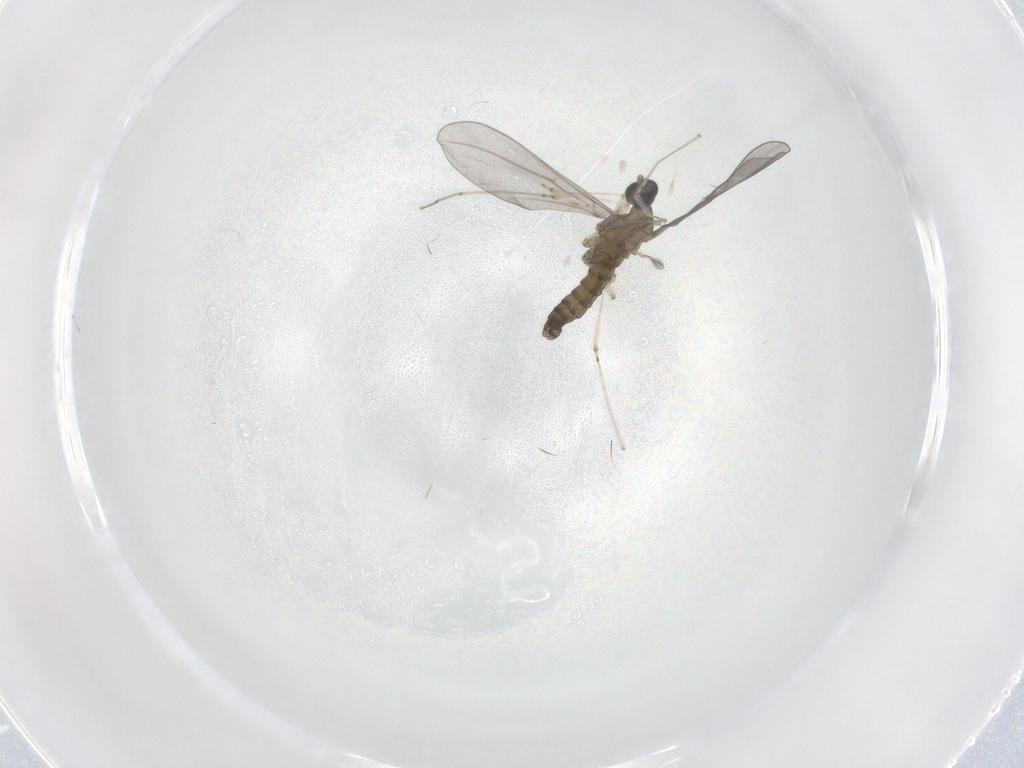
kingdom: Animalia
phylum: Arthropoda
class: Insecta
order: Diptera
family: Cecidomyiidae
